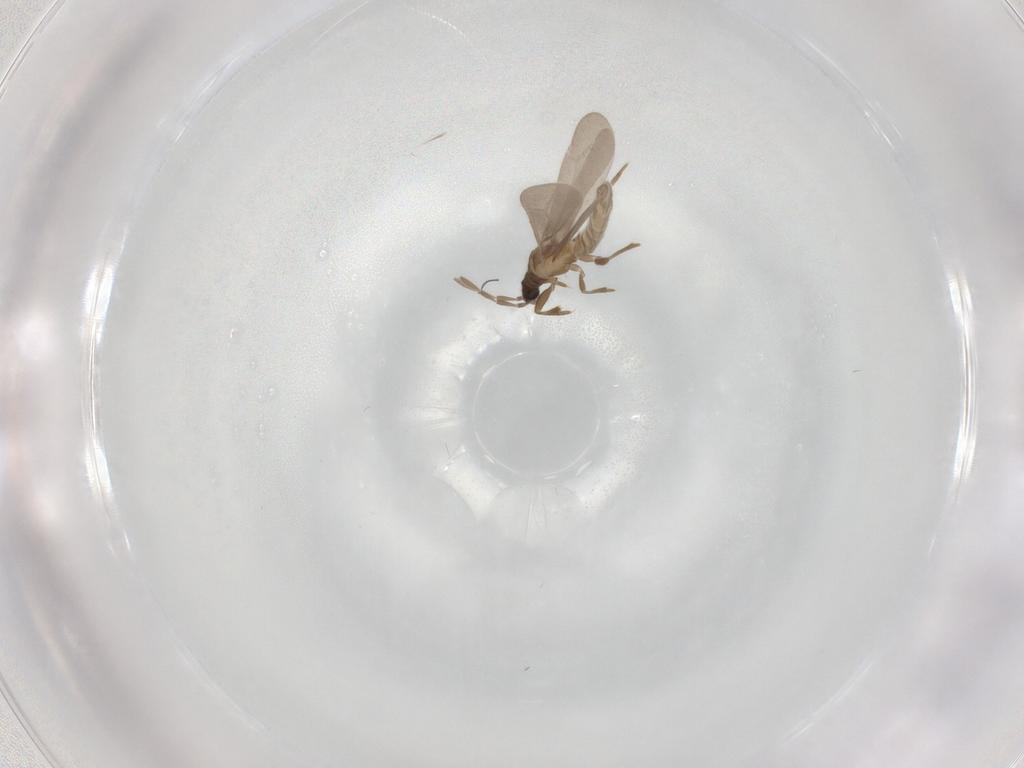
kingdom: Animalia
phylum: Arthropoda
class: Insecta
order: Hemiptera
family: Enicocephalidae
